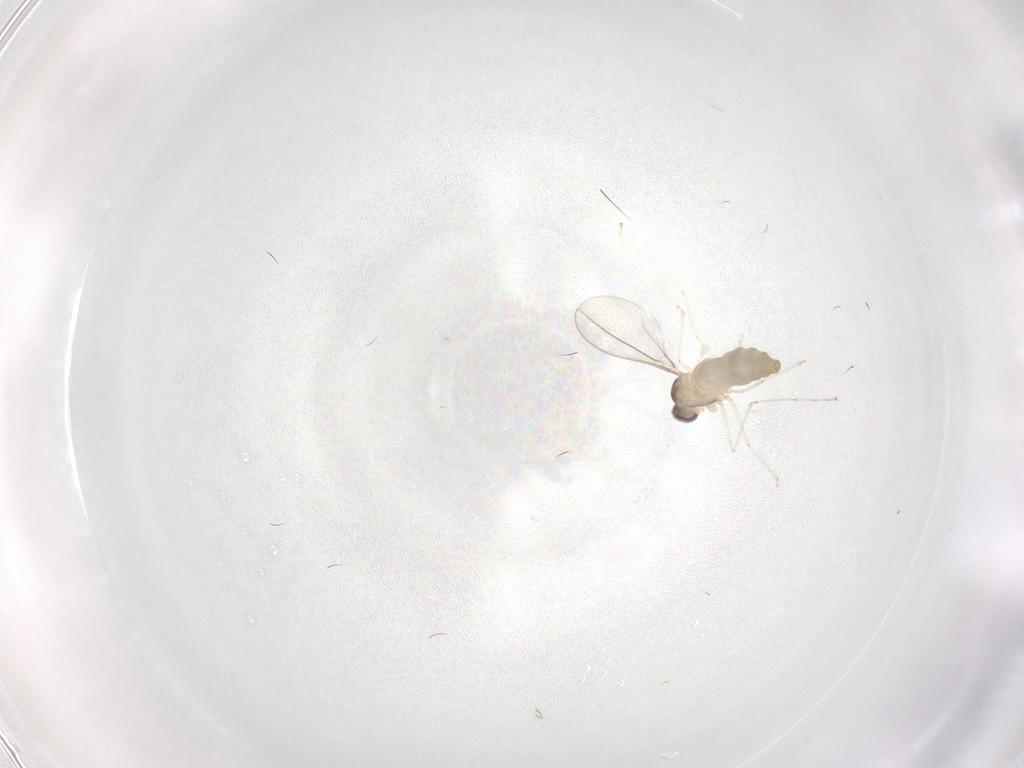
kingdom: Animalia
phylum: Arthropoda
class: Insecta
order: Diptera
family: Cecidomyiidae
